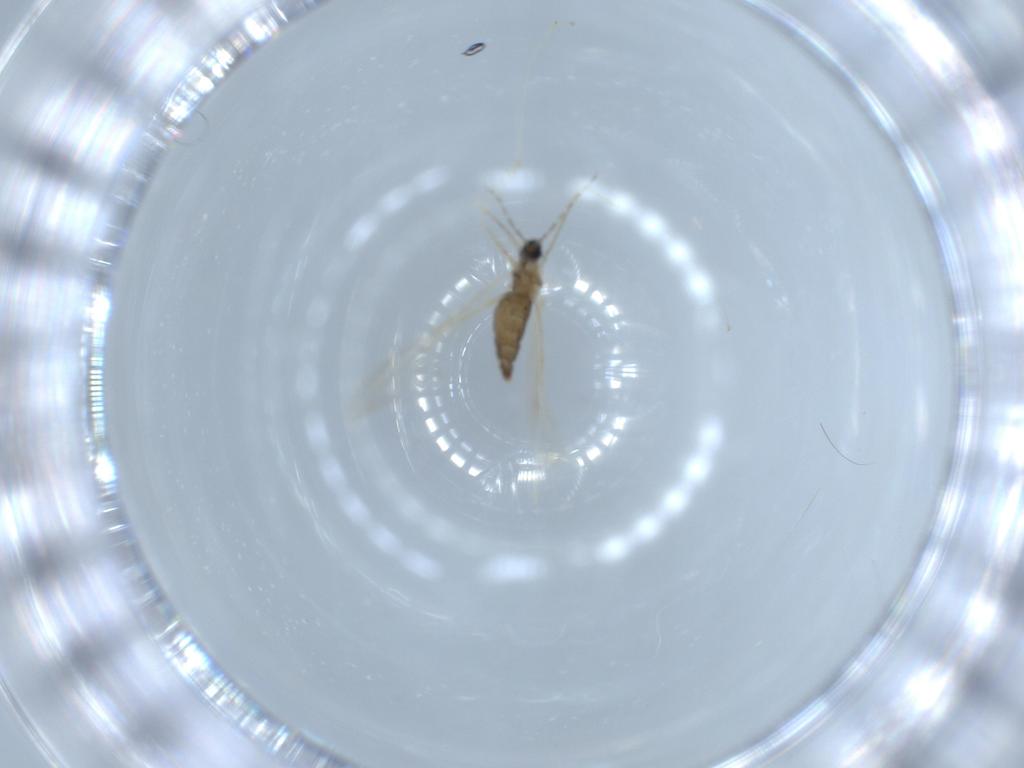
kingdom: Animalia
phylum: Arthropoda
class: Insecta
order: Diptera
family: Cecidomyiidae
